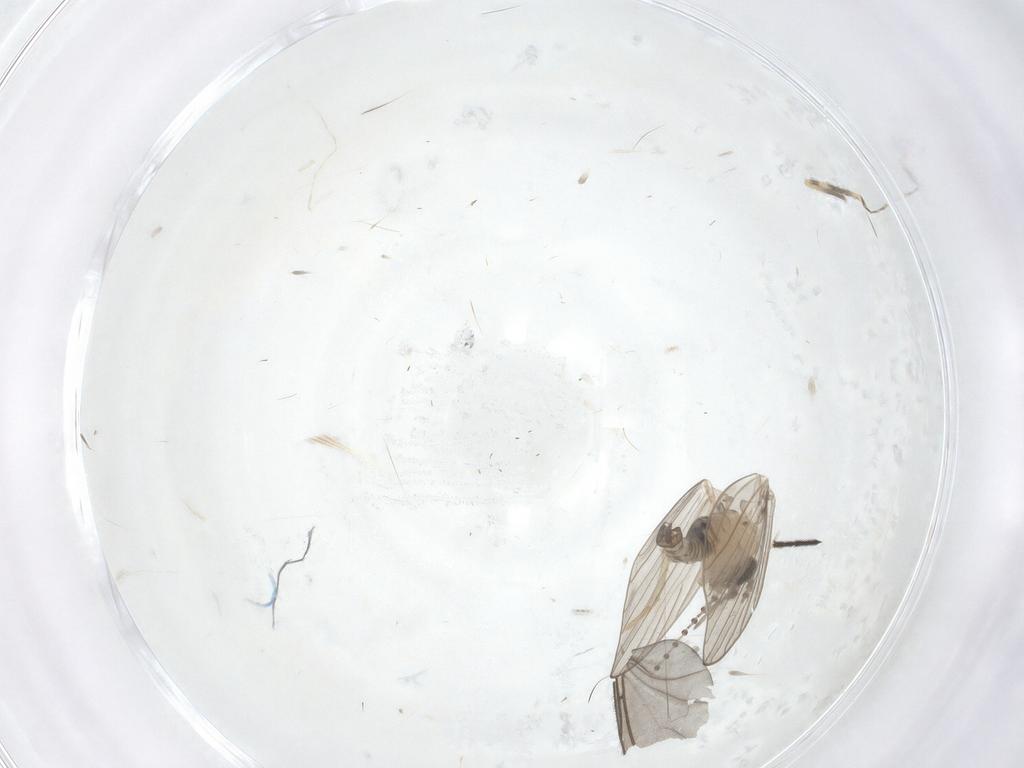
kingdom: Animalia
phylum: Arthropoda
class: Insecta
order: Diptera
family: Psychodidae
